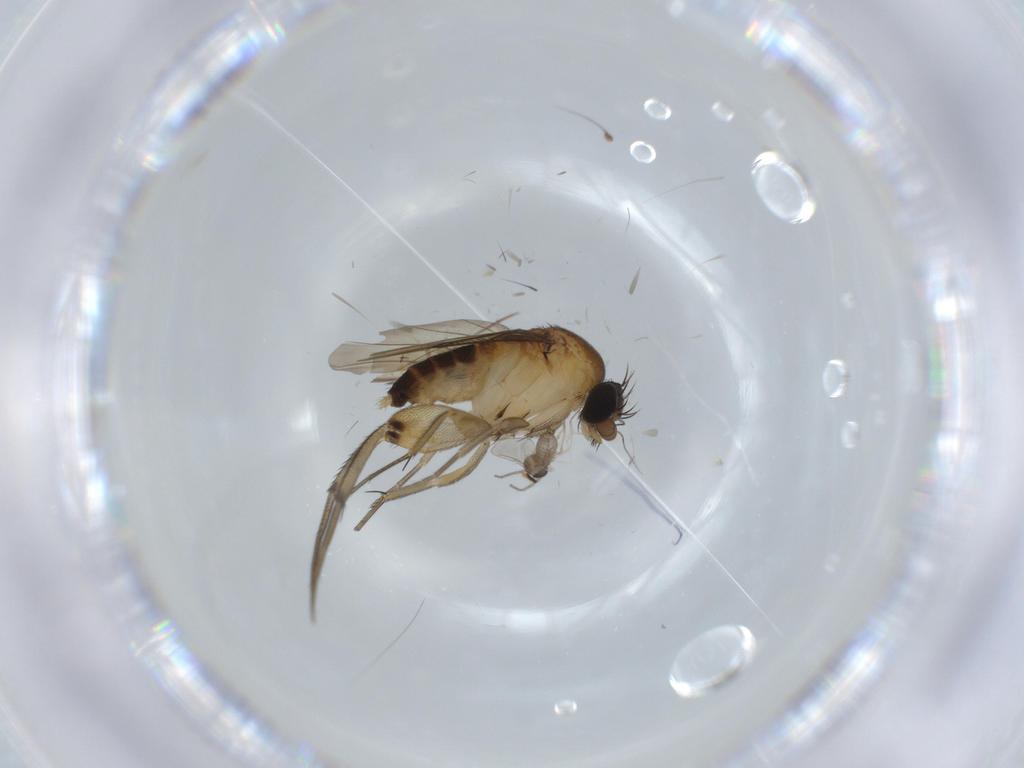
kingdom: Animalia
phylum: Arthropoda
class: Insecta
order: Diptera
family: Phoridae
